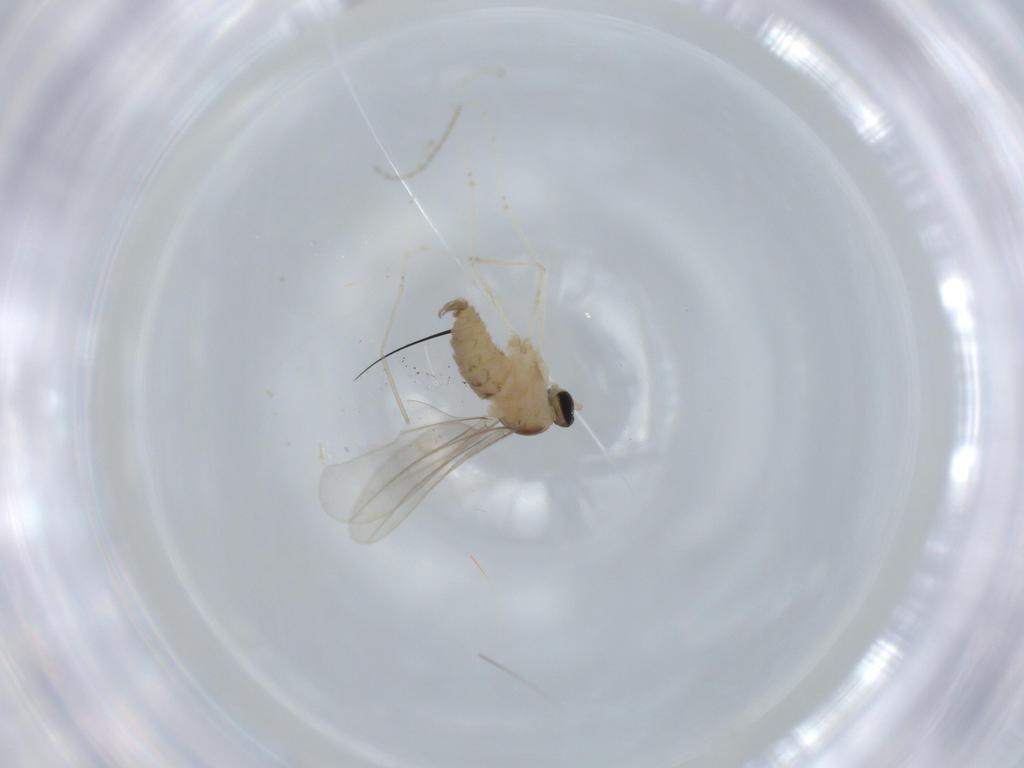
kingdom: Animalia
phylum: Arthropoda
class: Insecta
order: Diptera
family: Cecidomyiidae
